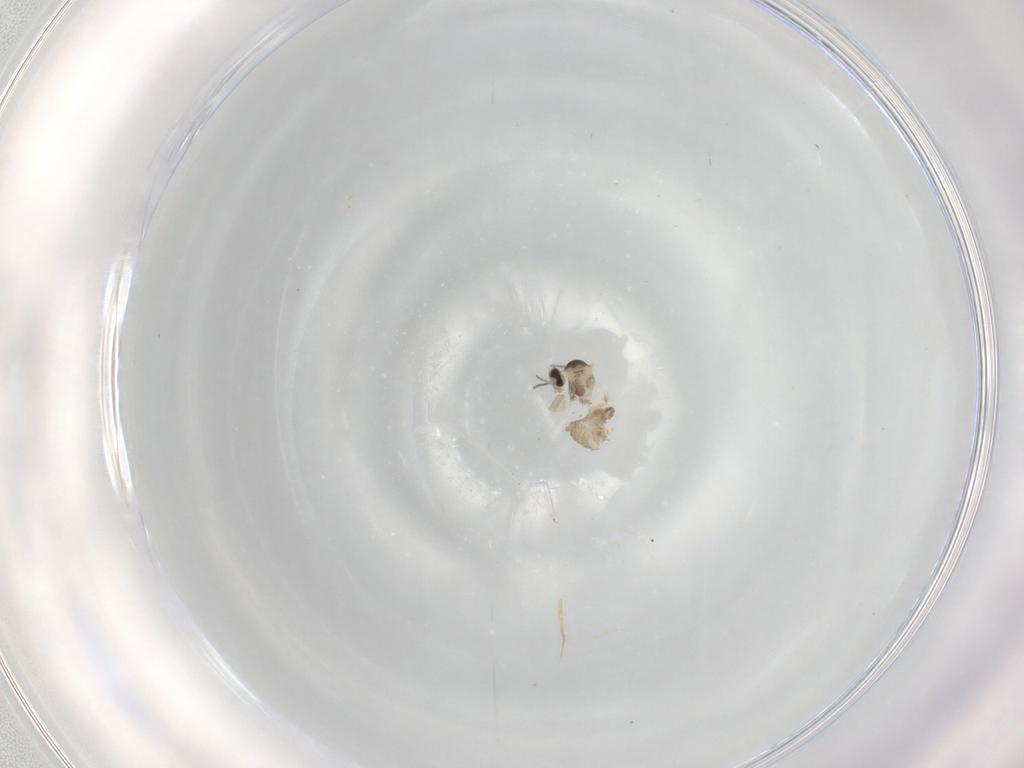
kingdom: Animalia
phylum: Arthropoda
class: Insecta
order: Diptera
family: Cecidomyiidae
